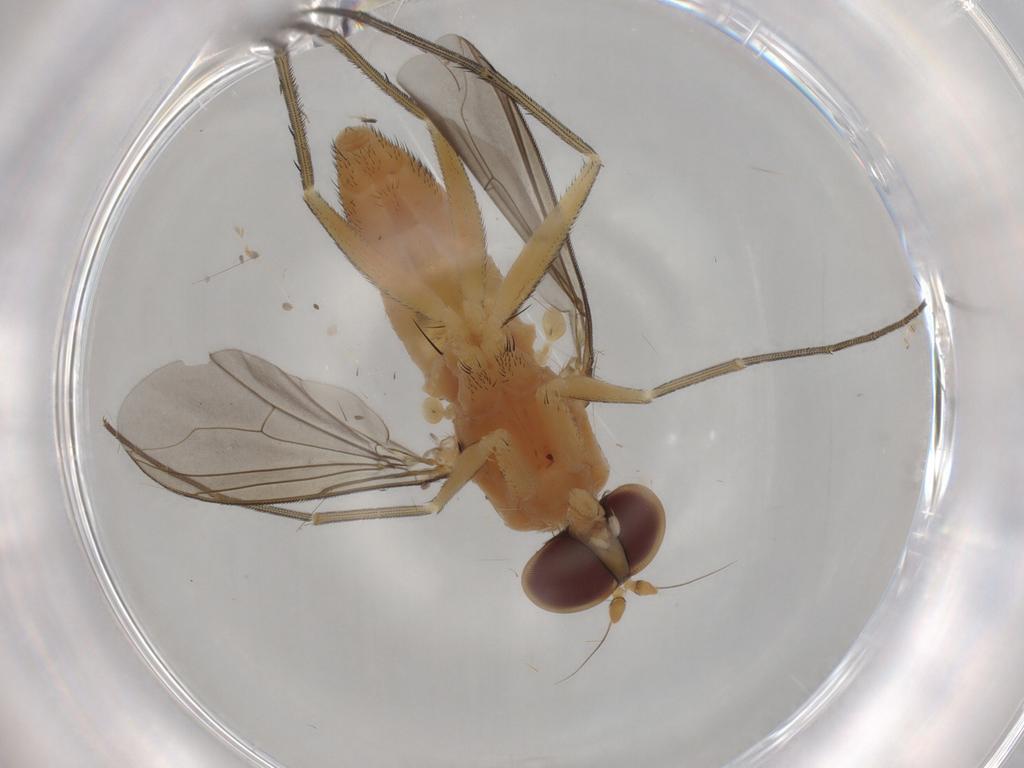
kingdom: Animalia
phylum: Arthropoda
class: Insecta
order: Diptera
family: Dolichopodidae
